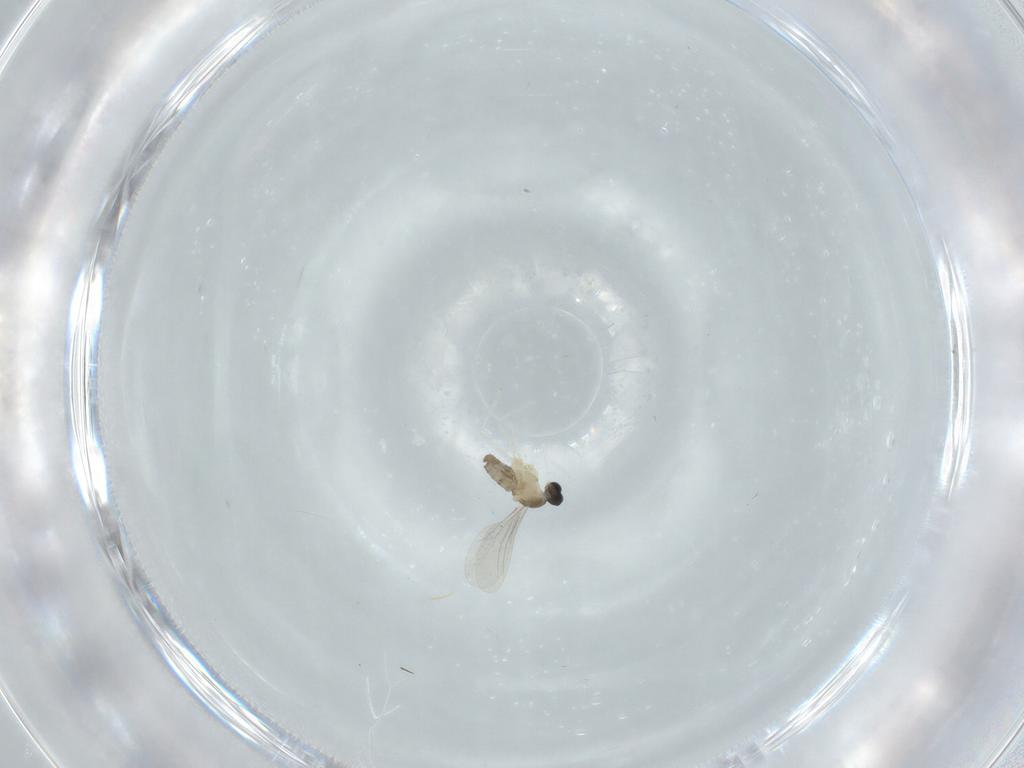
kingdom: Animalia
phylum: Arthropoda
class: Insecta
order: Diptera
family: Cecidomyiidae
